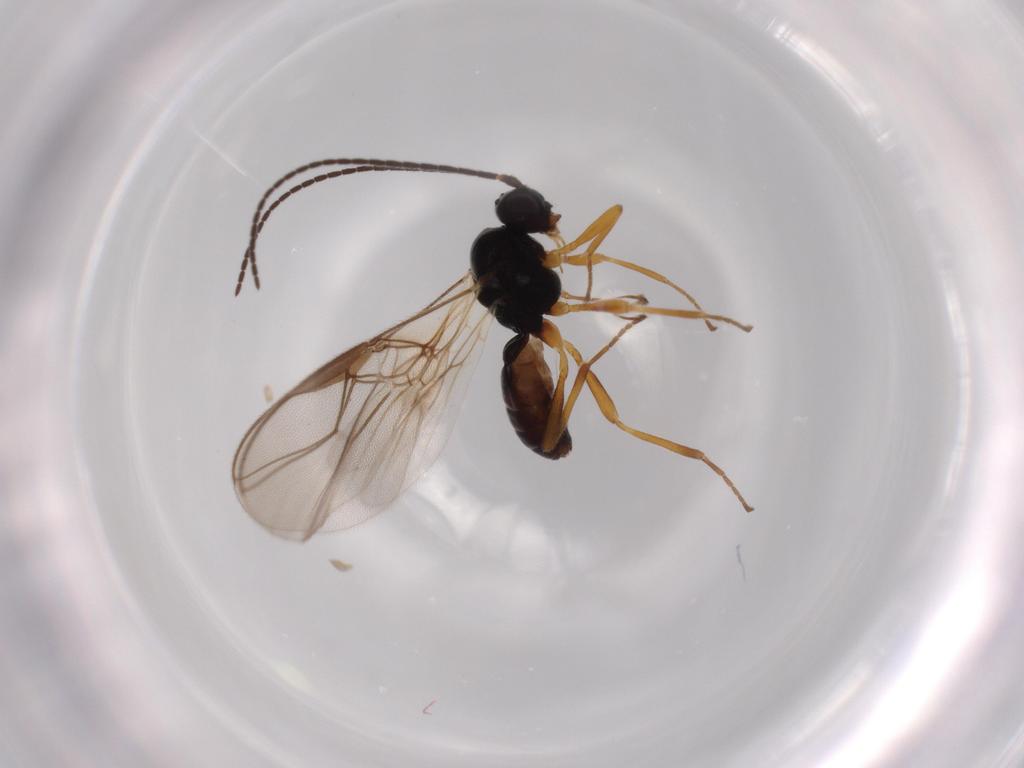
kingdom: Animalia
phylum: Arthropoda
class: Insecta
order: Hymenoptera
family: Braconidae
